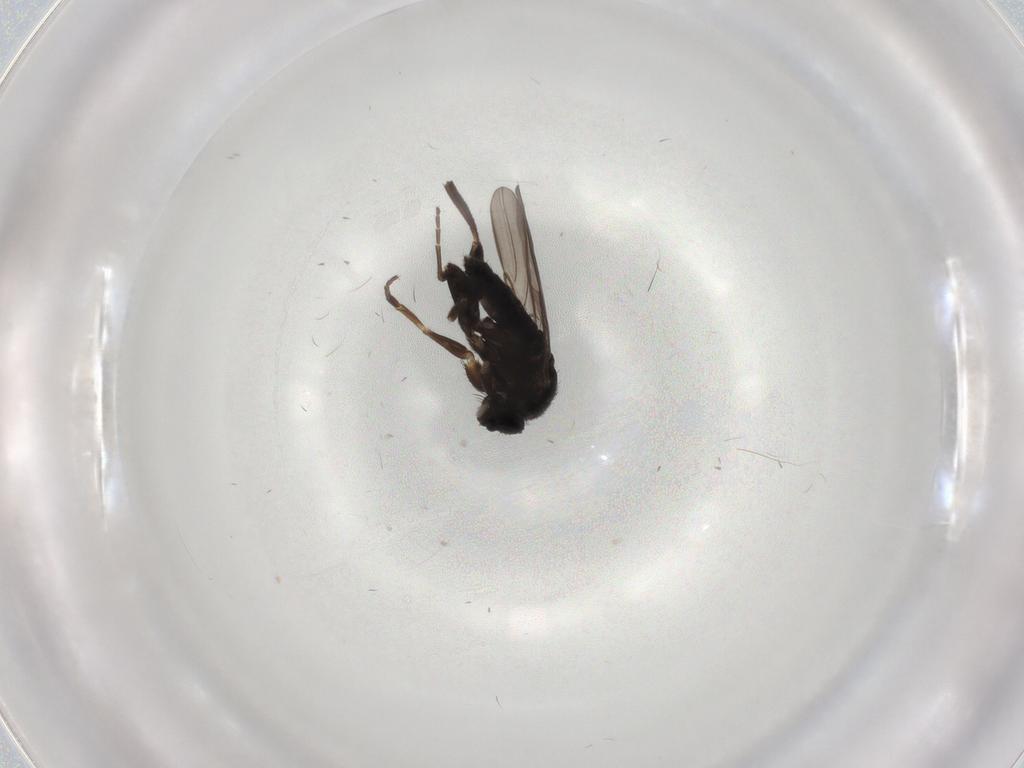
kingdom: Animalia
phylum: Arthropoda
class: Insecta
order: Diptera
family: Phoridae
